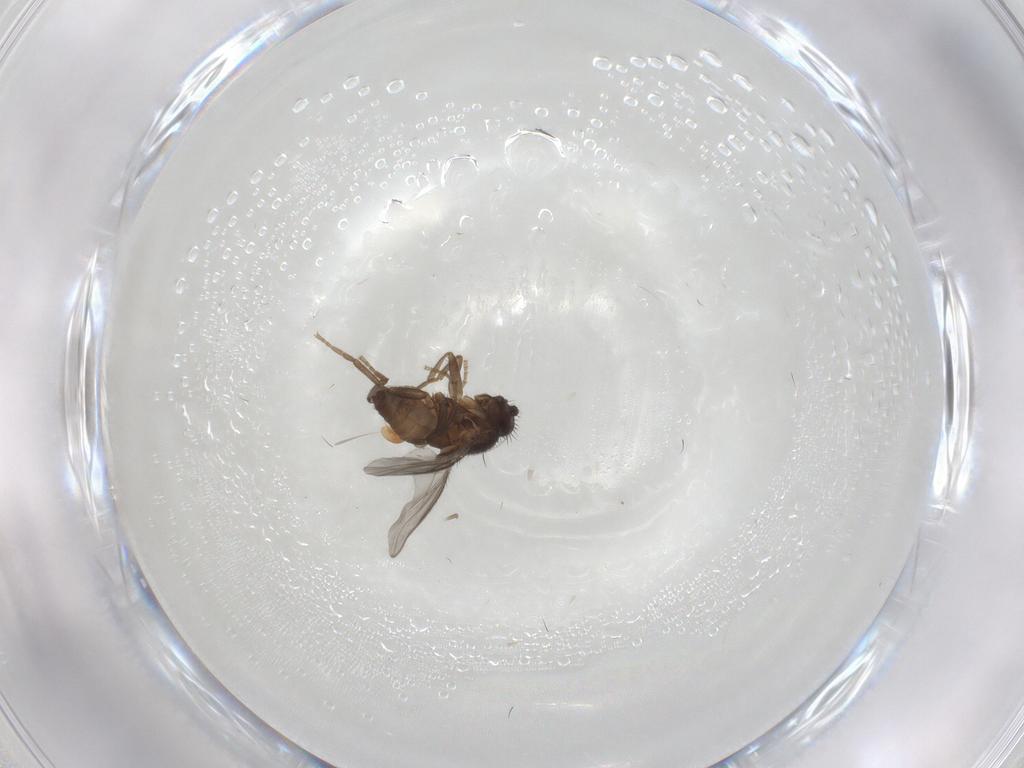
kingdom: Animalia
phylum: Arthropoda
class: Insecta
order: Diptera
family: Sphaeroceridae
